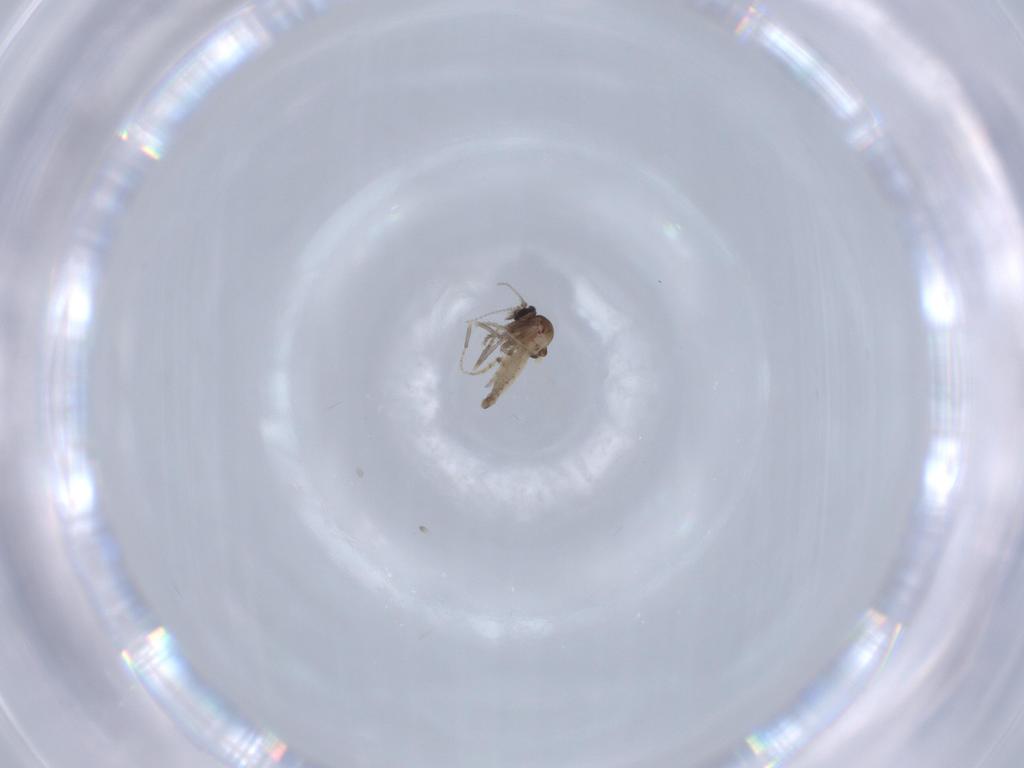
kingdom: Animalia
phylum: Arthropoda
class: Insecta
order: Diptera
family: Ceratopogonidae
